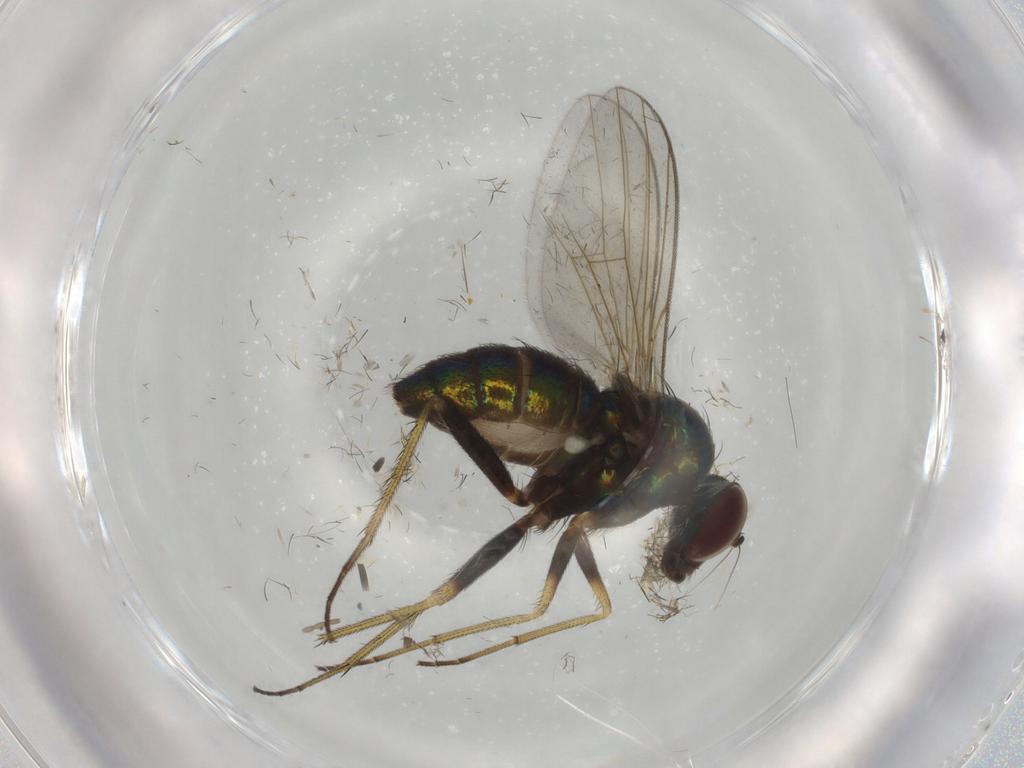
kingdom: Animalia
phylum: Arthropoda
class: Insecta
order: Diptera
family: Dolichopodidae
